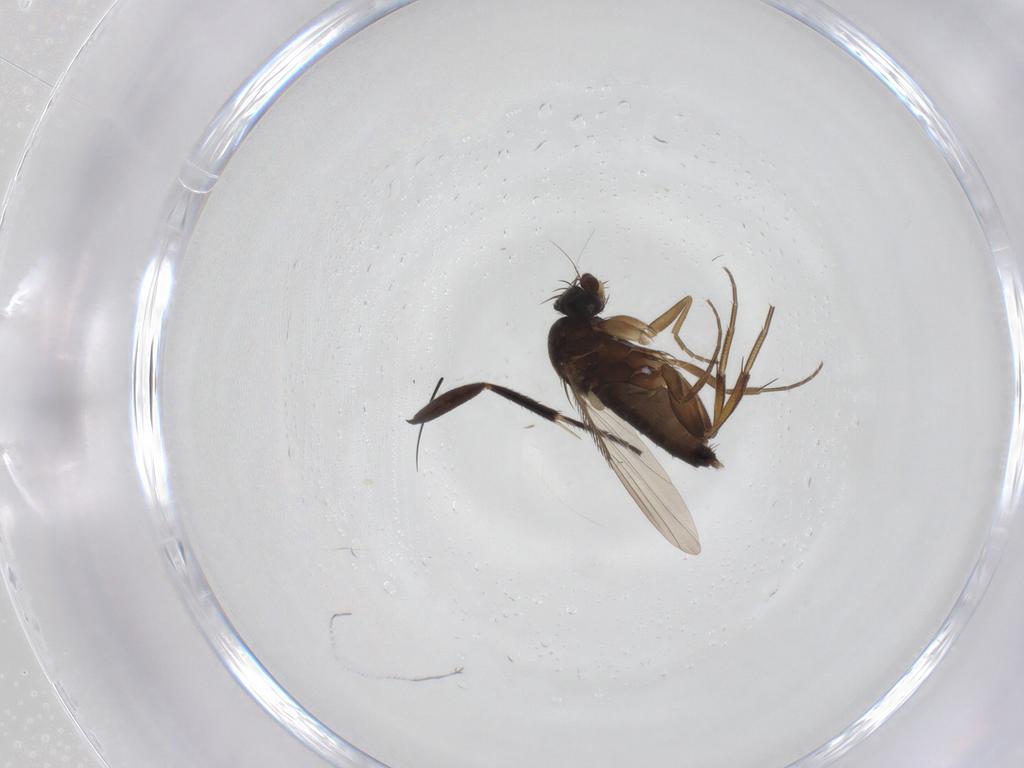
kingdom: Animalia
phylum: Arthropoda
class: Insecta
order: Diptera
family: Phoridae
